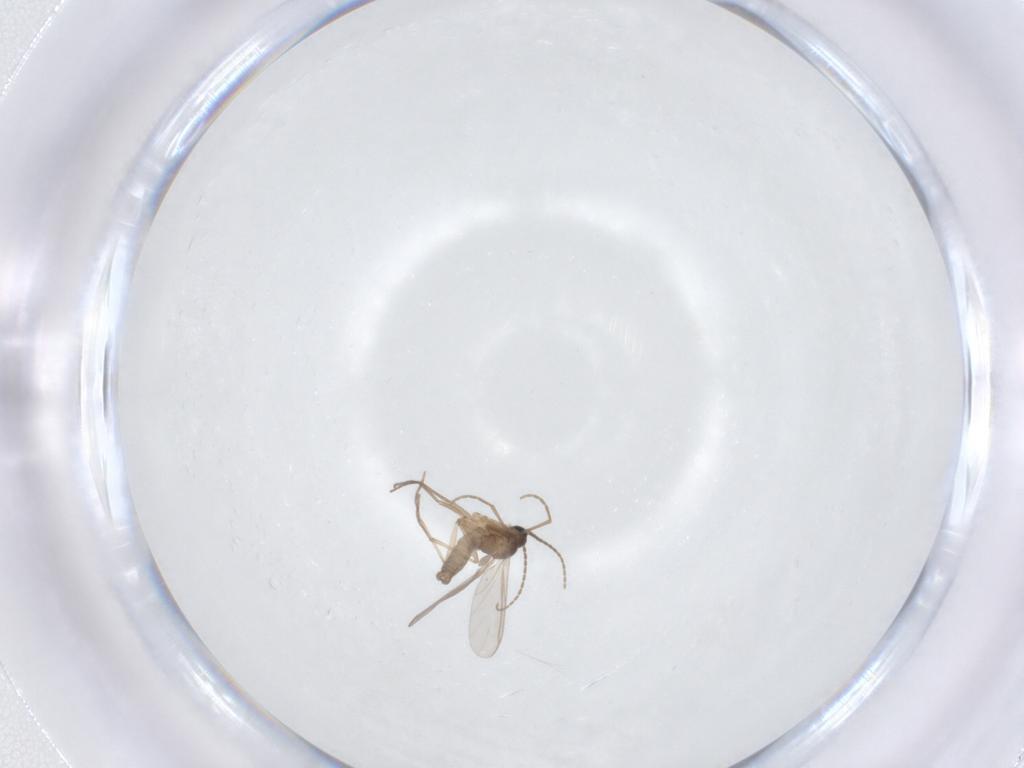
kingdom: Animalia
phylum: Arthropoda
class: Insecta
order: Diptera
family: Sciaridae
